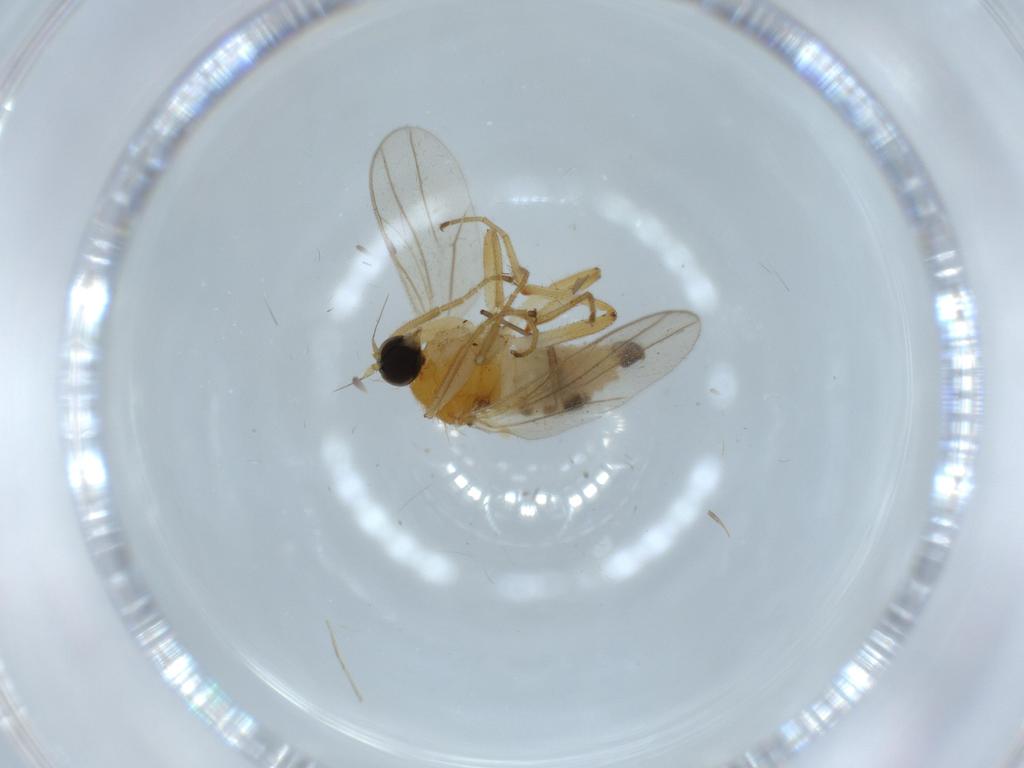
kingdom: Animalia
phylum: Arthropoda
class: Insecta
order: Diptera
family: Hybotidae
